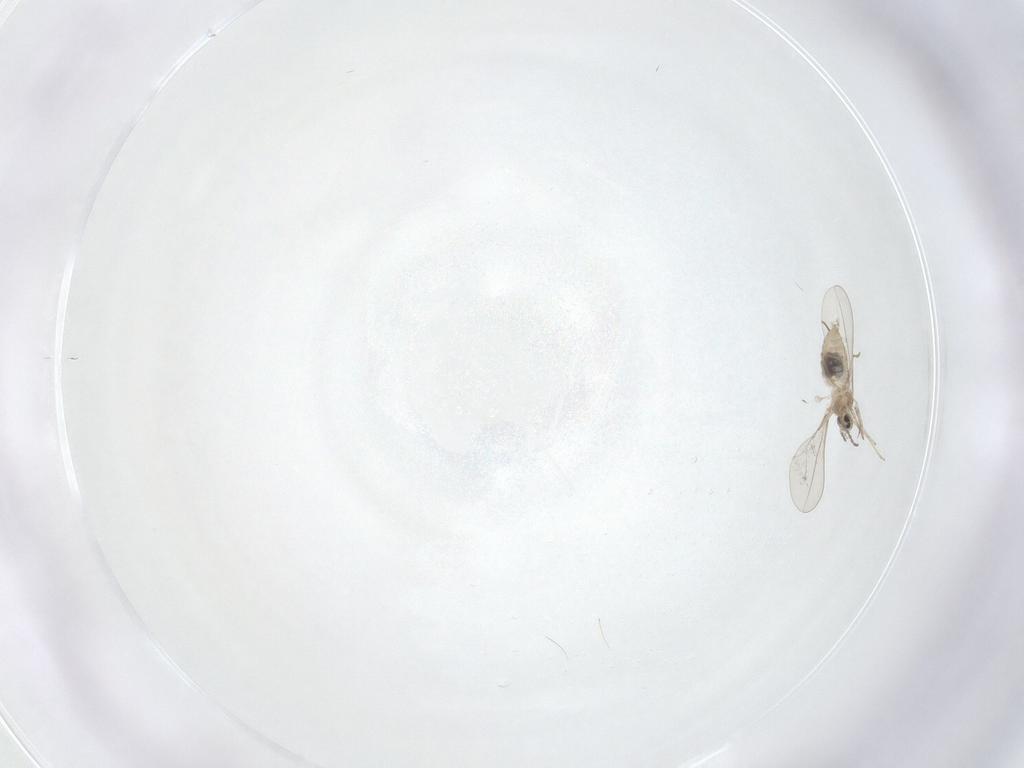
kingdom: Animalia
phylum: Arthropoda
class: Insecta
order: Diptera
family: Cecidomyiidae
